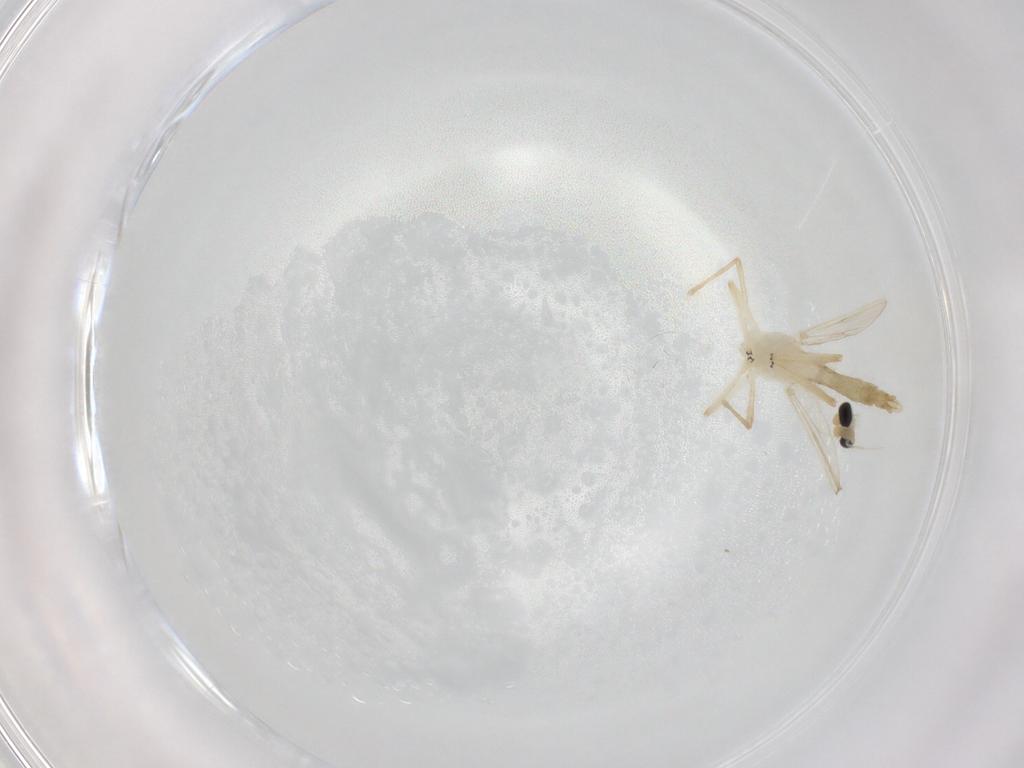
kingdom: Animalia
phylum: Arthropoda
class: Insecta
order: Diptera
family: Chironomidae
